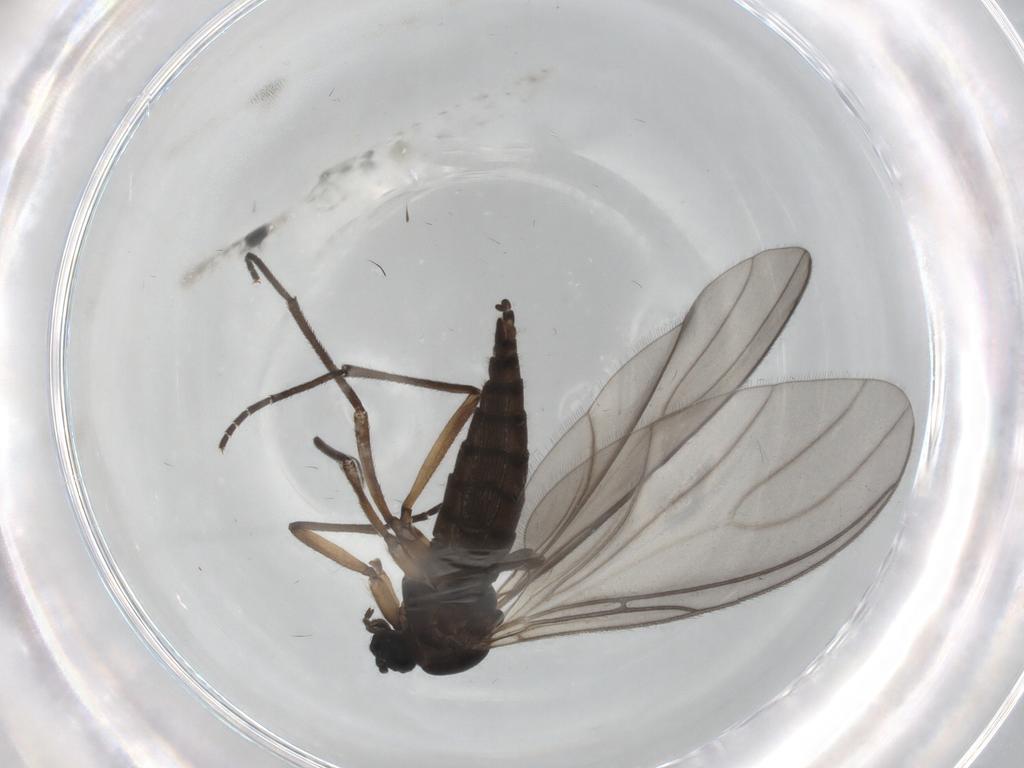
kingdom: Animalia
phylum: Arthropoda
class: Insecta
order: Diptera
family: Sciaridae
